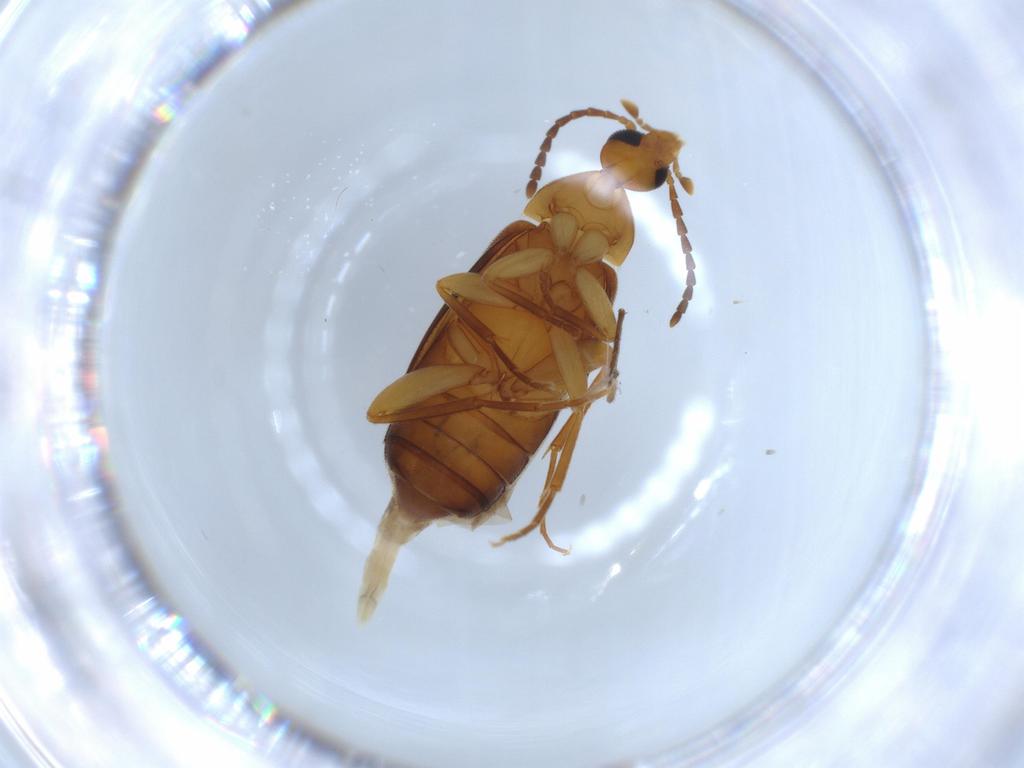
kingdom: Animalia
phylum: Arthropoda
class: Insecta
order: Coleoptera
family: Scraptiidae
